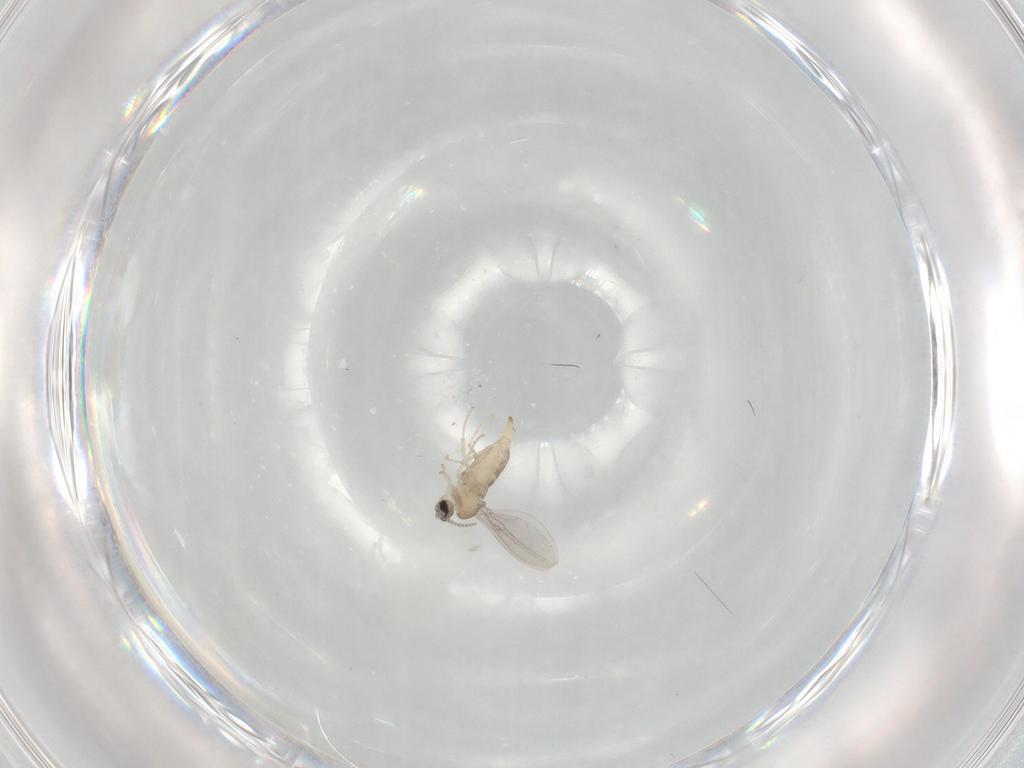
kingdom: Animalia
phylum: Arthropoda
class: Insecta
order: Diptera
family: Cecidomyiidae
